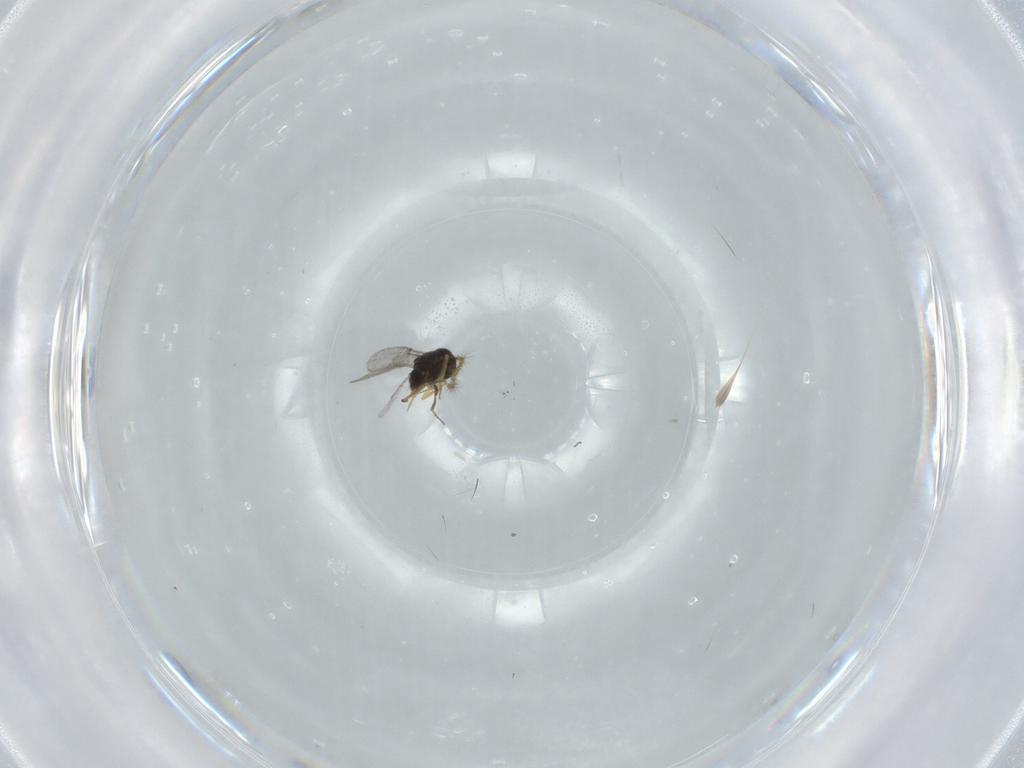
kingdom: Animalia
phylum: Arthropoda
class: Insecta
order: Hymenoptera
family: Encyrtidae
